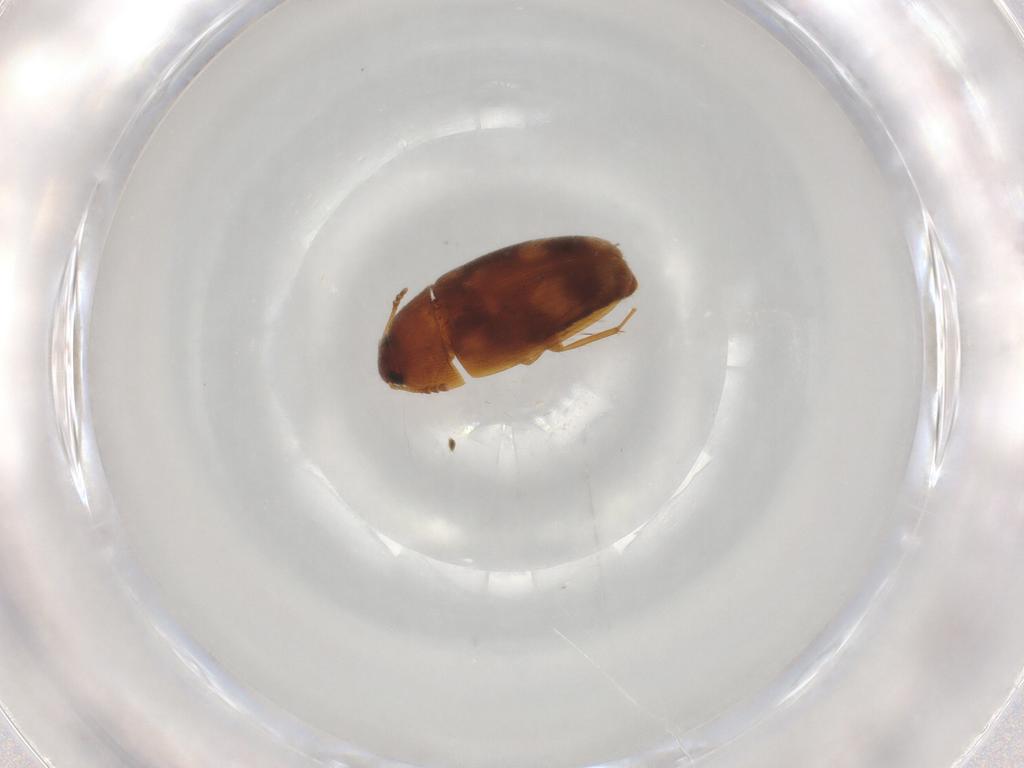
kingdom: Animalia
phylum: Arthropoda
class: Insecta
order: Coleoptera
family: Mycetophagidae
